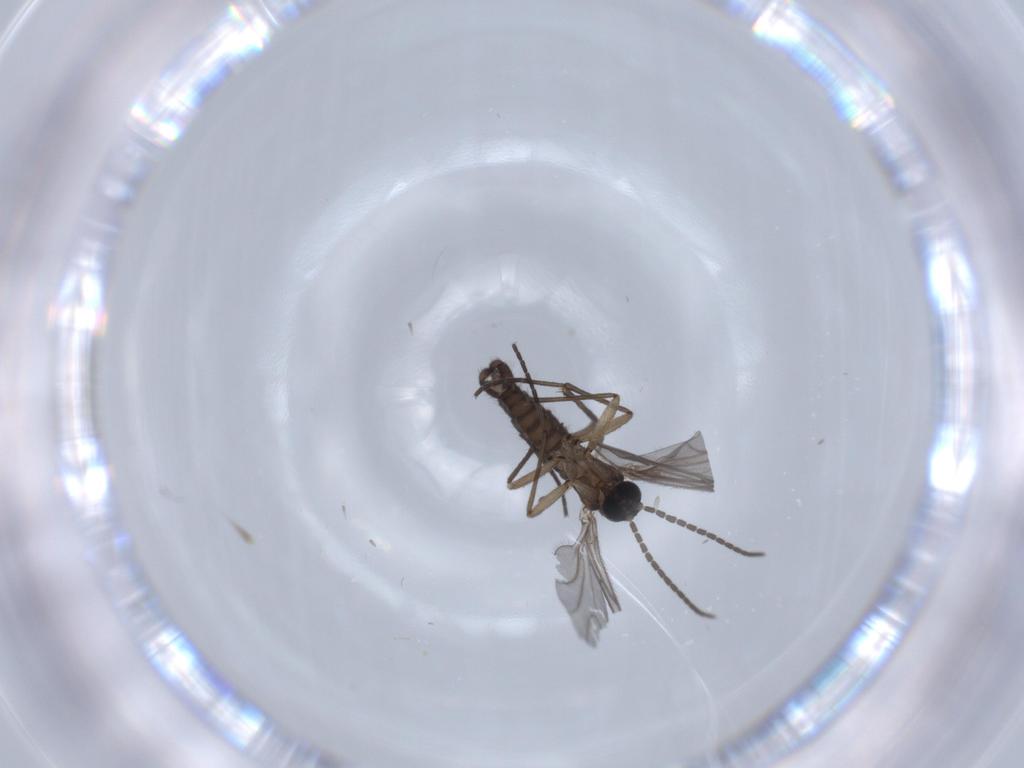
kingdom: Animalia
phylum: Arthropoda
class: Insecta
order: Diptera
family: Sciaridae
